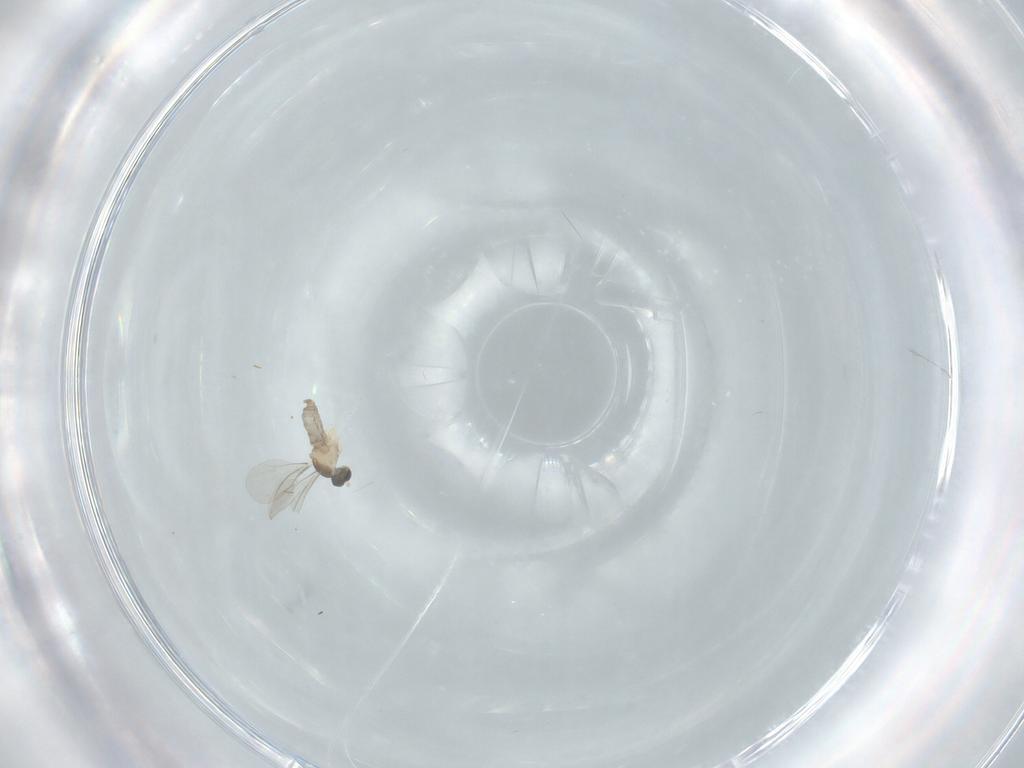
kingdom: Animalia
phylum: Arthropoda
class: Insecta
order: Diptera
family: Cecidomyiidae
